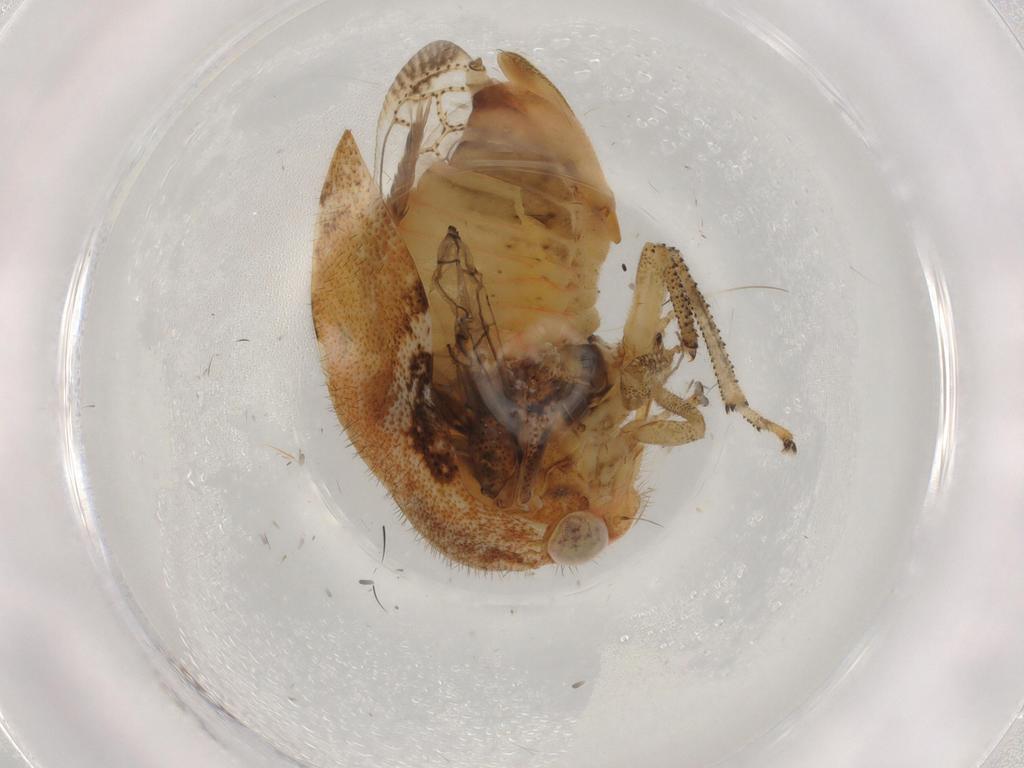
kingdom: Animalia
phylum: Arthropoda
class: Insecta
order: Hemiptera
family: Membracidae
